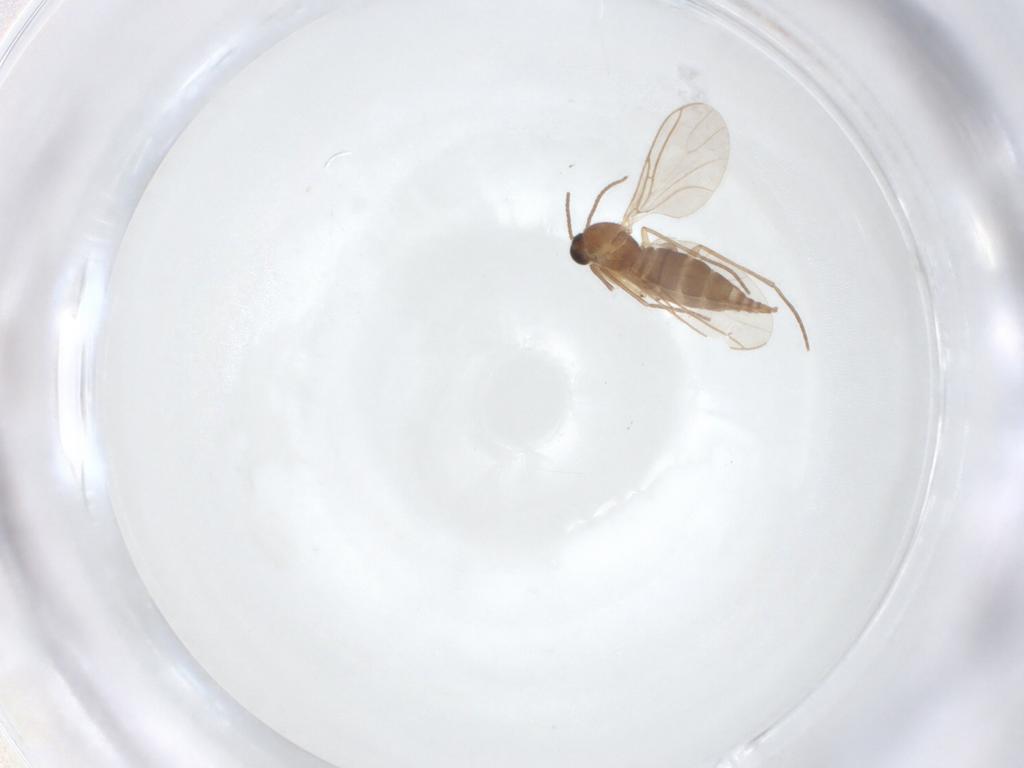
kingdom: Animalia
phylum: Arthropoda
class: Insecta
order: Diptera
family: Sciaridae
